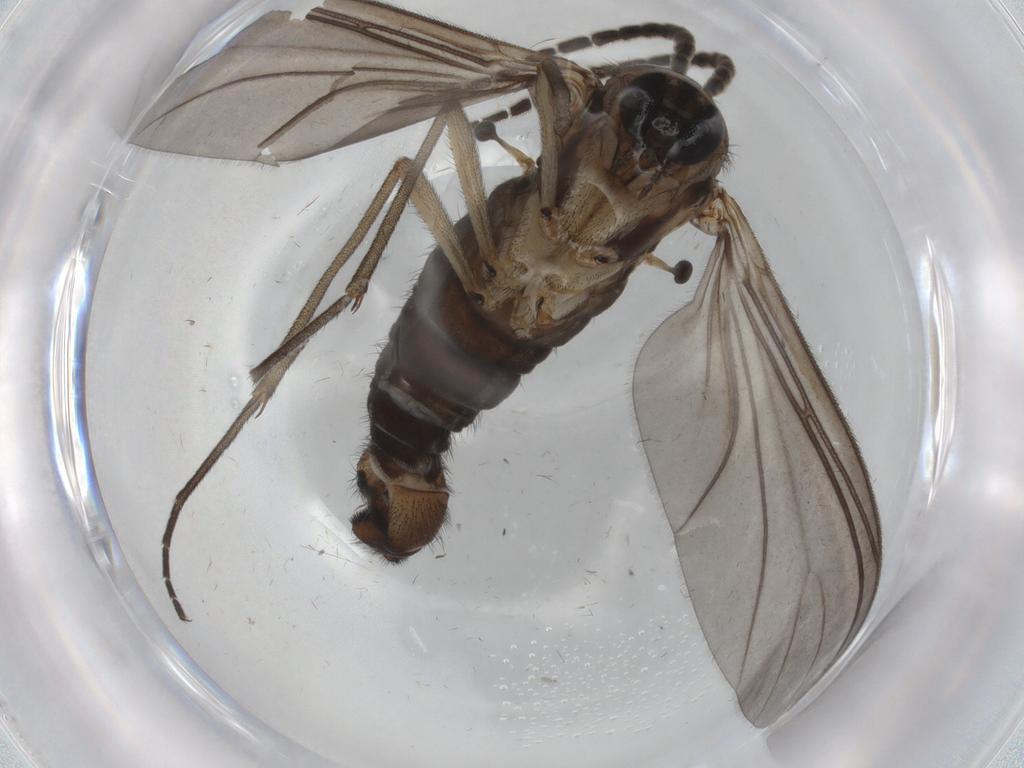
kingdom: Animalia
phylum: Arthropoda
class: Insecta
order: Diptera
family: Sciaridae
